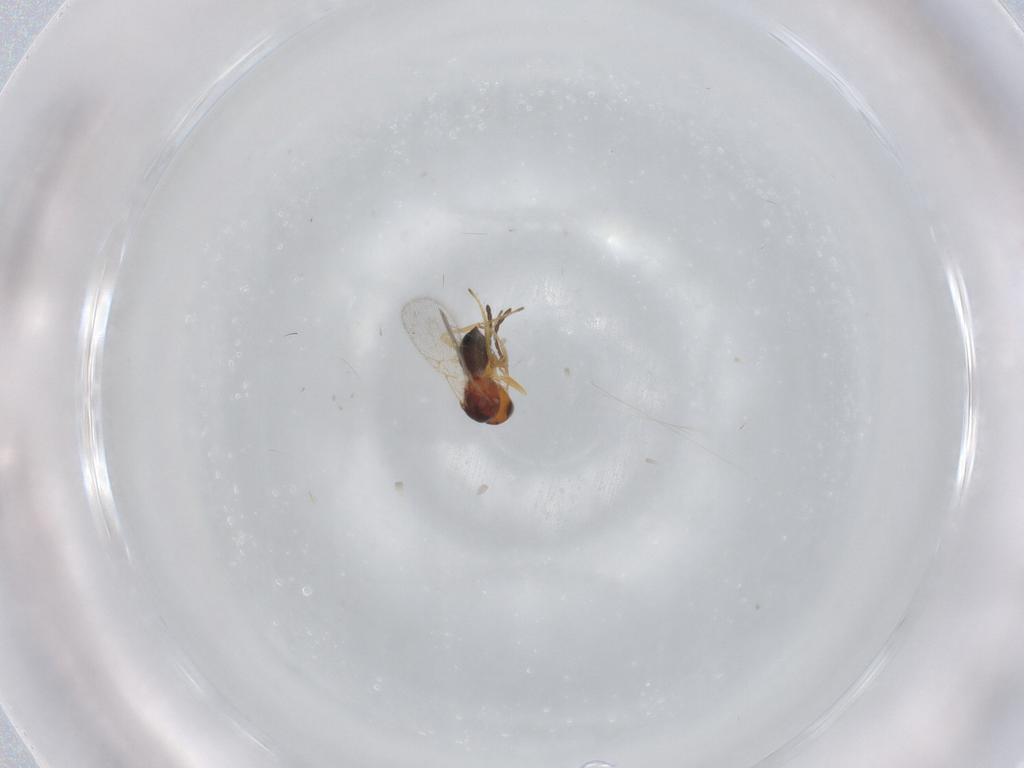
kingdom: Animalia
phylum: Arthropoda
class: Insecta
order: Hymenoptera
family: Figitidae
